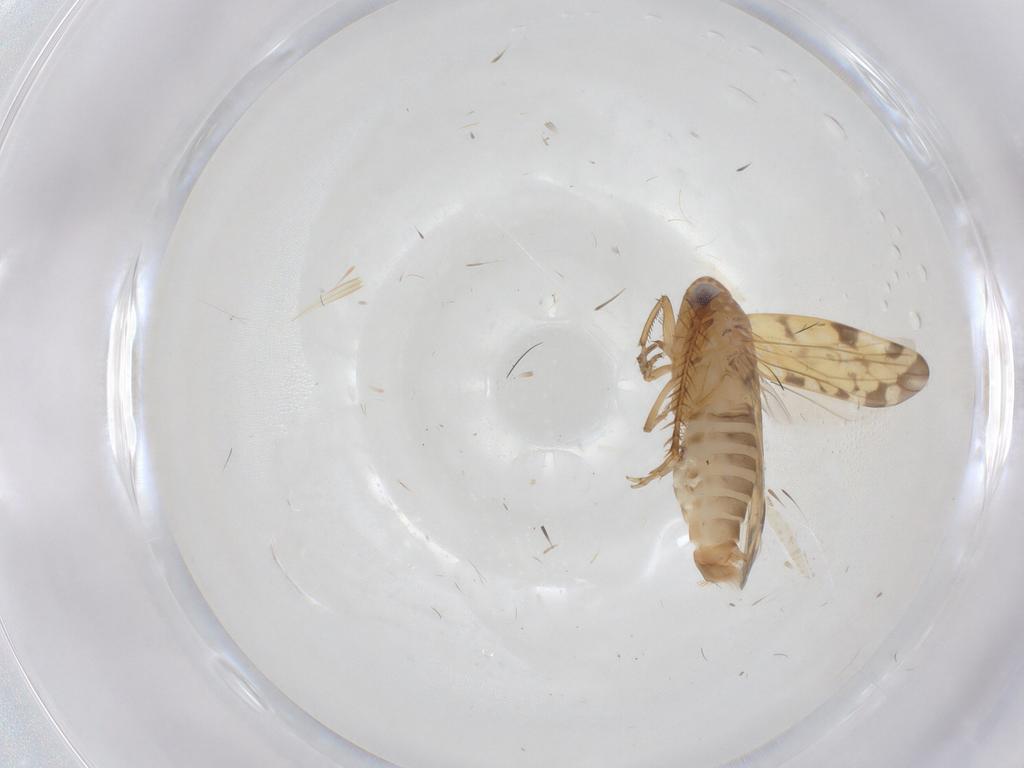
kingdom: Animalia
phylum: Arthropoda
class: Insecta
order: Hemiptera
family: Cicadellidae
